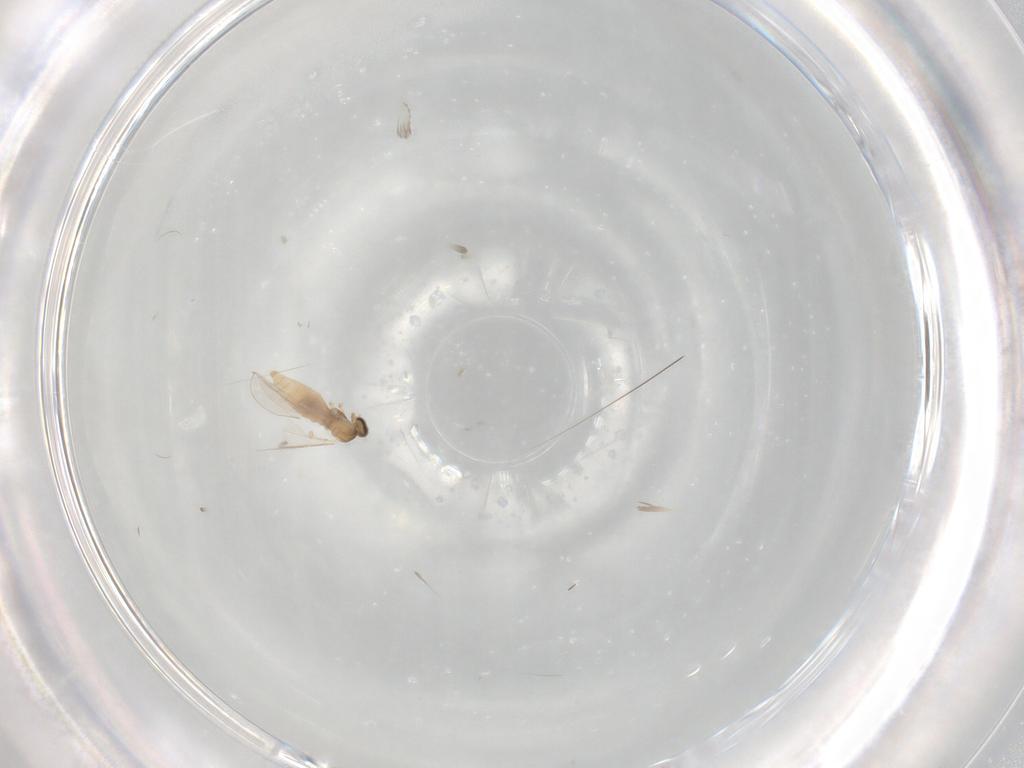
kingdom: Animalia
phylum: Arthropoda
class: Insecta
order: Diptera
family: Cecidomyiidae
